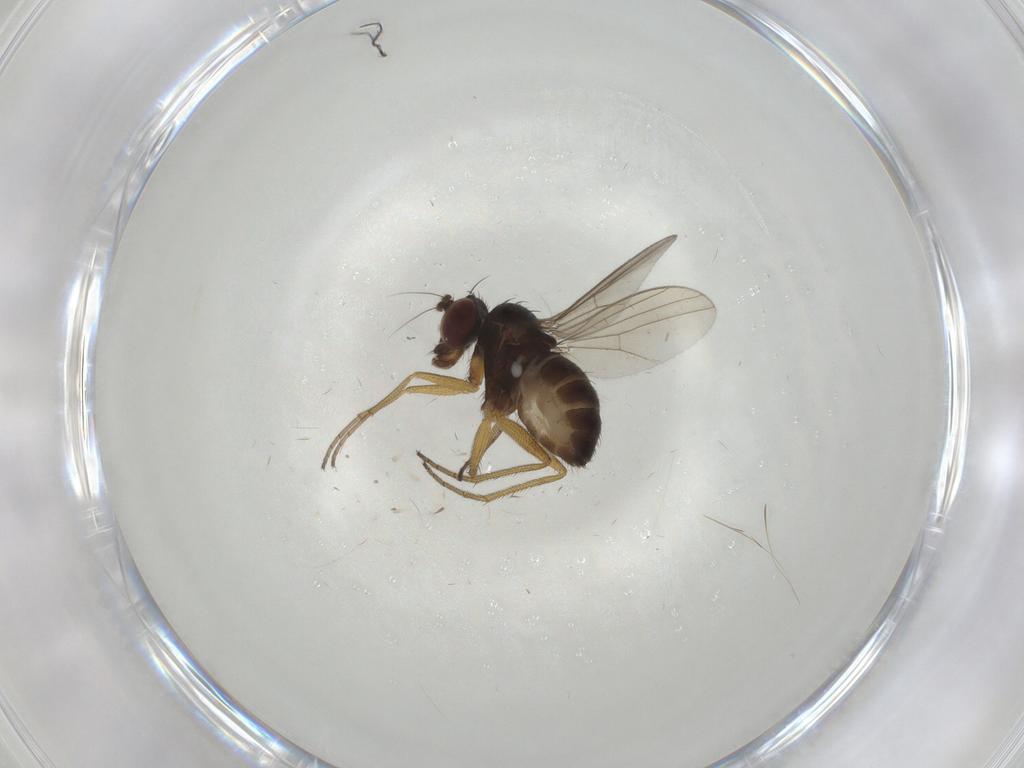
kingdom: Animalia
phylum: Arthropoda
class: Insecta
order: Diptera
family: Dolichopodidae
